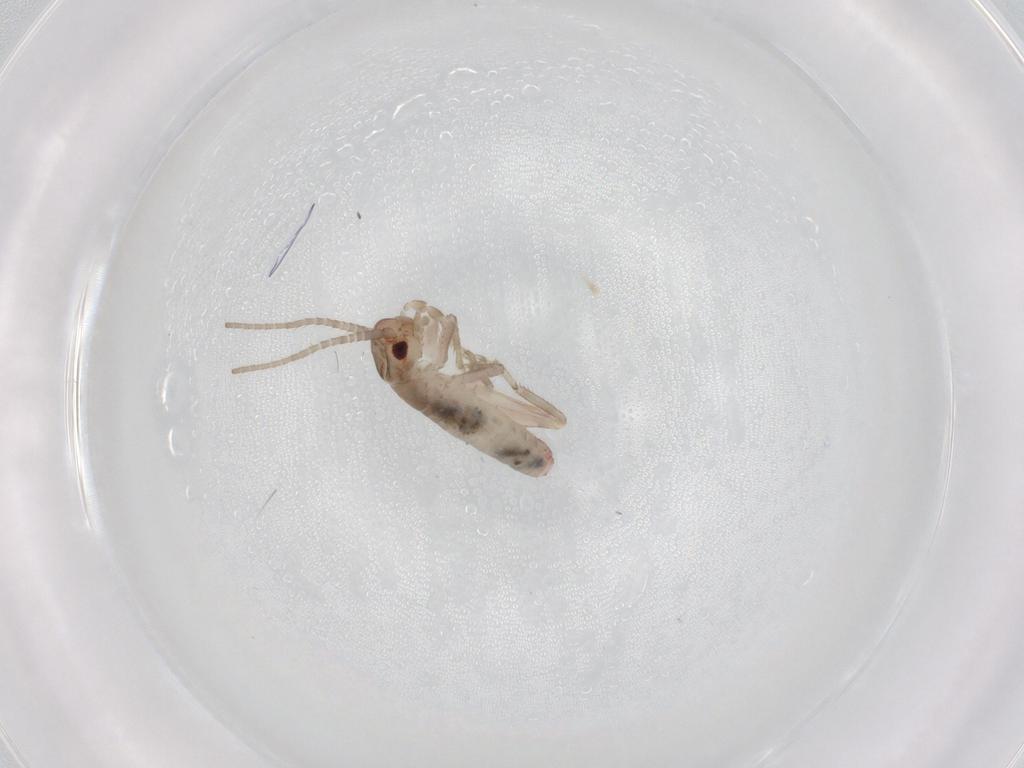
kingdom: Animalia
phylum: Arthropoda
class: Insecta
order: Orthoptera
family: Mogoplistidae
